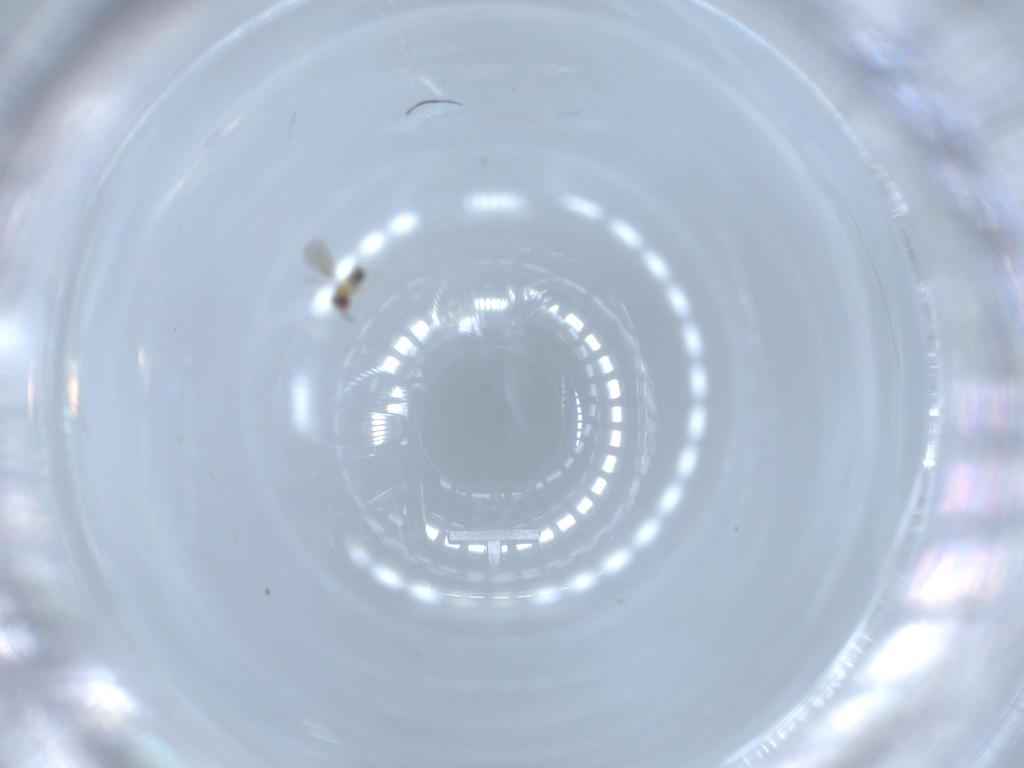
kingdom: Animalia
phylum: Arthropoda
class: Insecta
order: Hymenoptera
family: Aphelinidae
